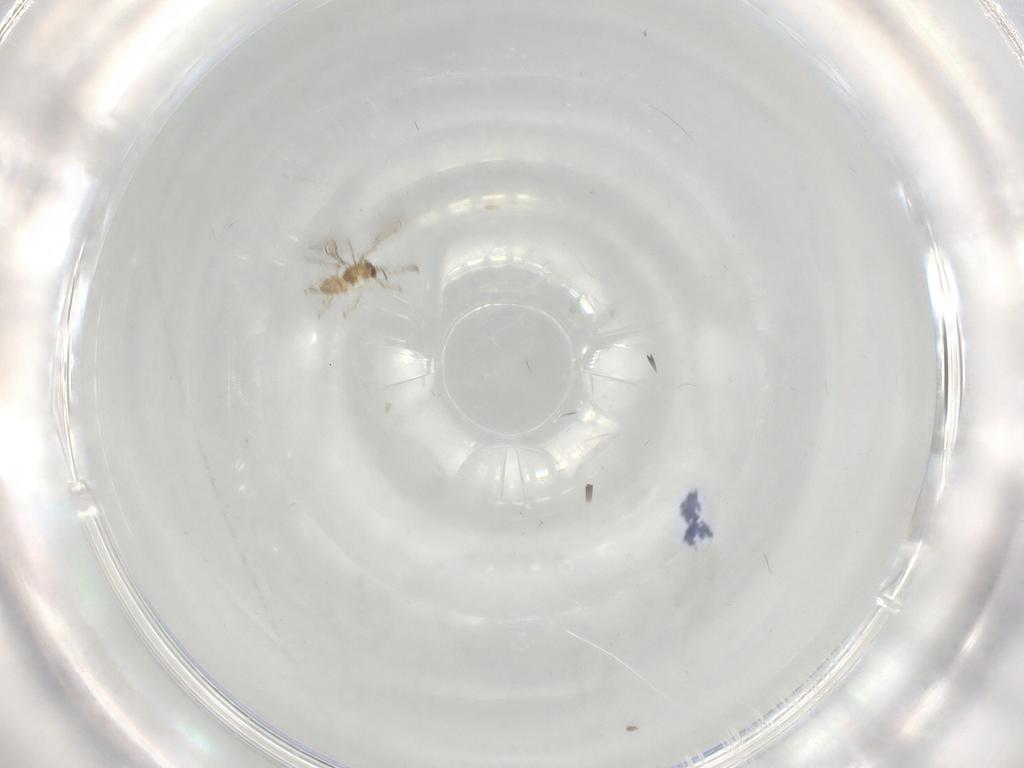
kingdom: Animalia
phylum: Arthropoda
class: Insecta
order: Hymenoptera
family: Mymaridae
